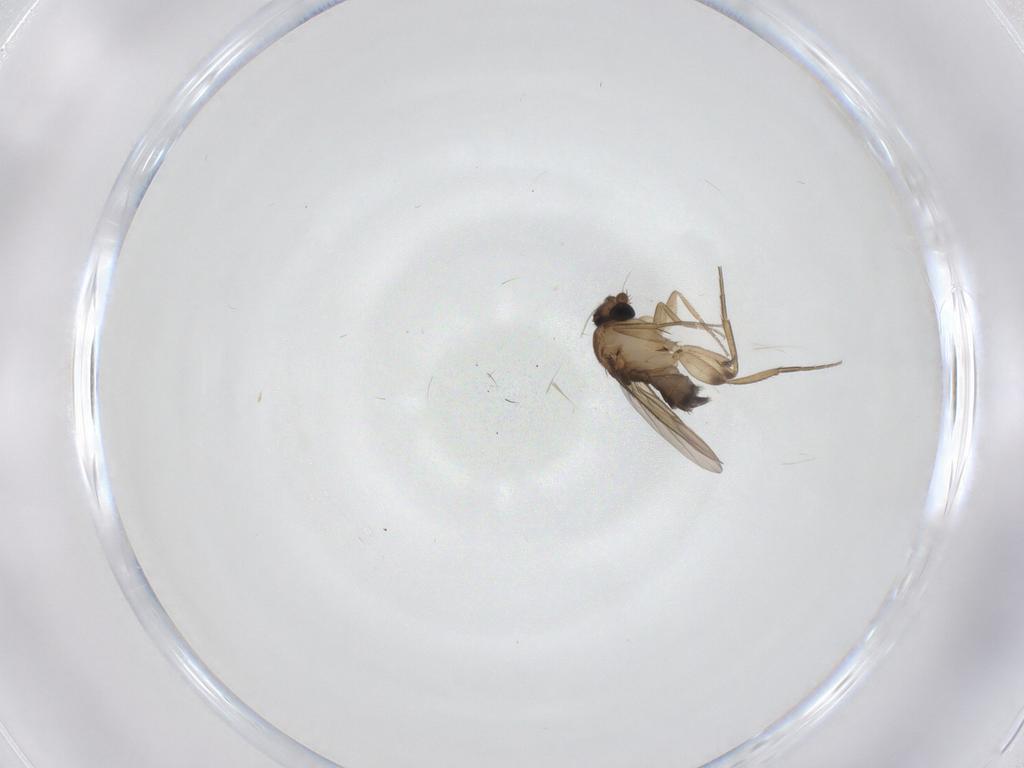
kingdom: Animalia
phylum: Arthropoda
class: Insecta
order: Diptera
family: Phoridae
